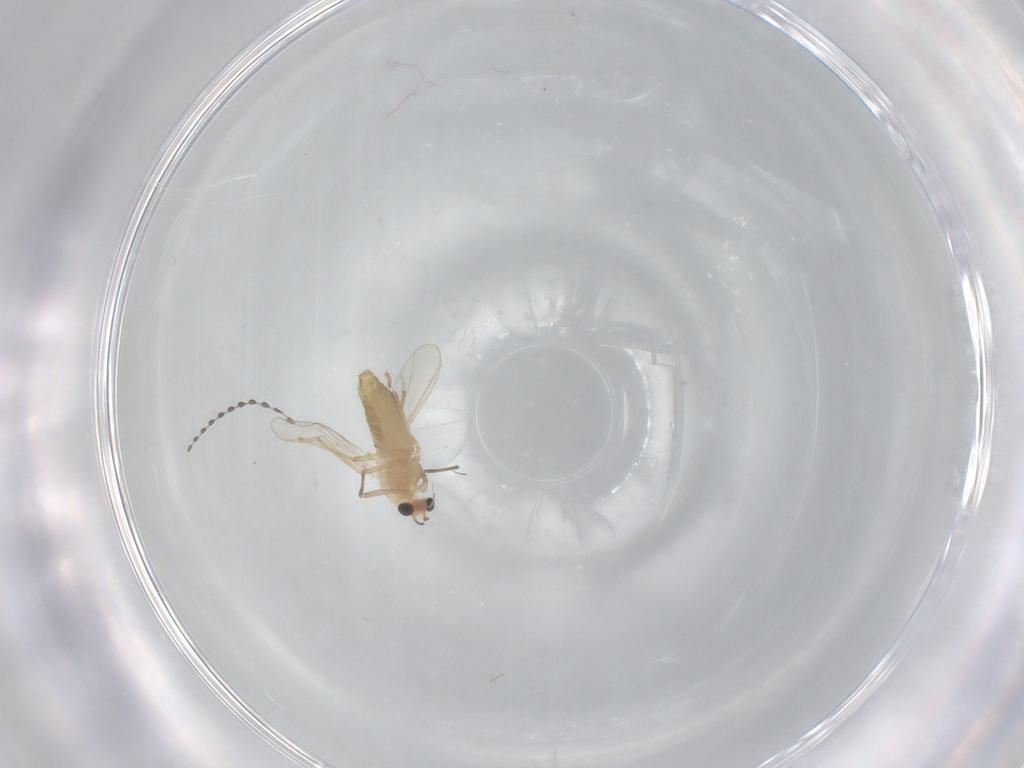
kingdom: Animalia
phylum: Arthropoda
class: Insecta
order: Diptera
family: Chironomidae
